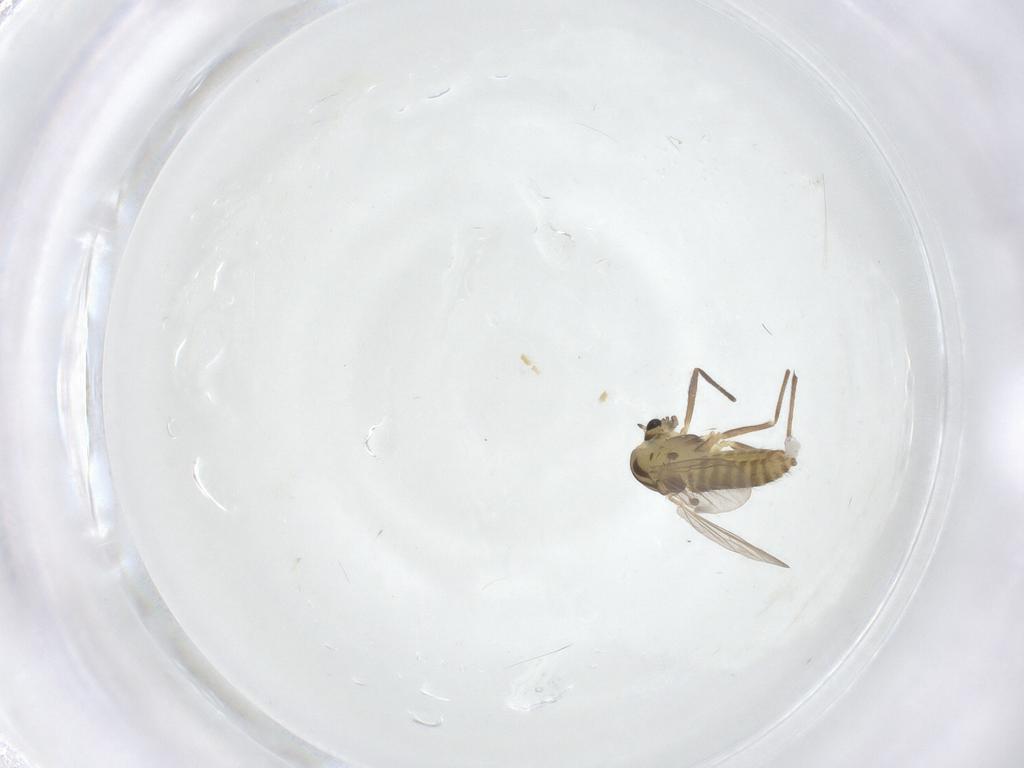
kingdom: Animalia
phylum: Arthropoda
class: Insecta
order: Diptera
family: Chironomidae
